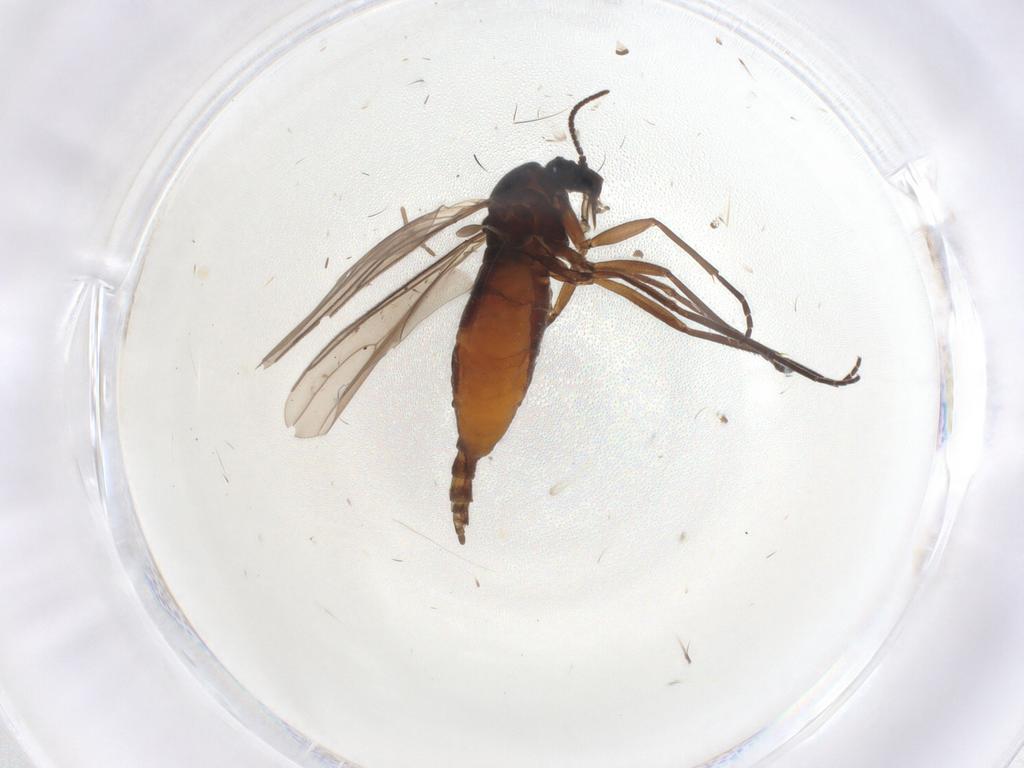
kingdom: Animalia
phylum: Arthropoda
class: Insecta
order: Diptera
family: Sciaridae
